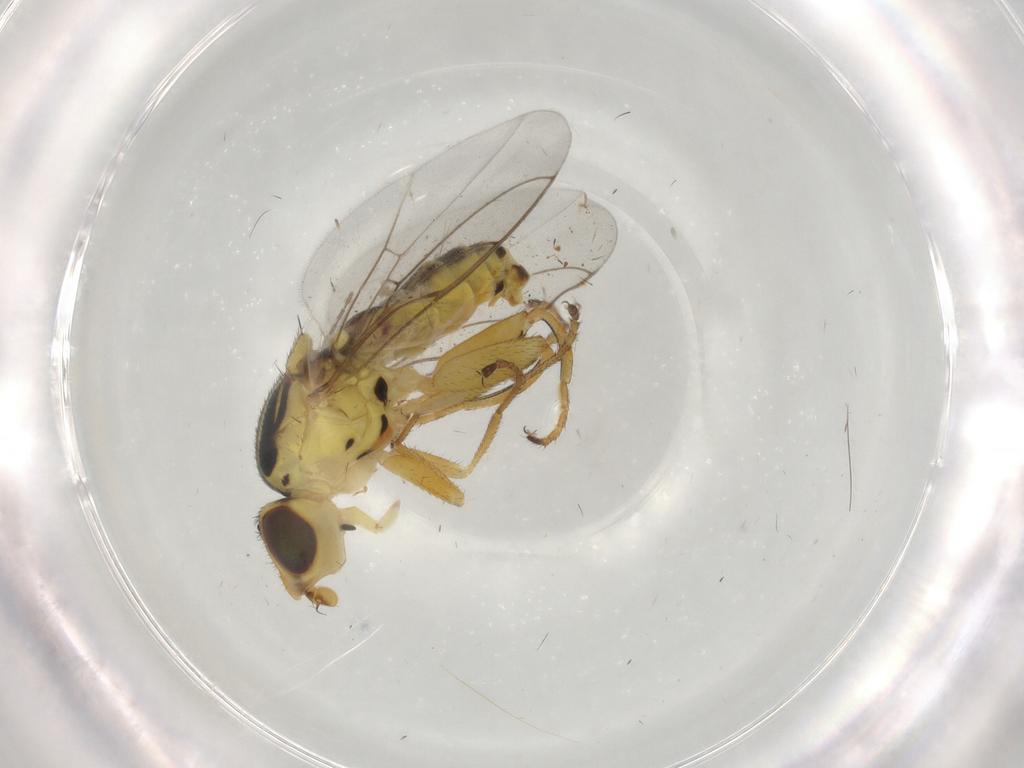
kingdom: Animalia
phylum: Arthropoda
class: Insecta
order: Diptera
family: Chloropidae
